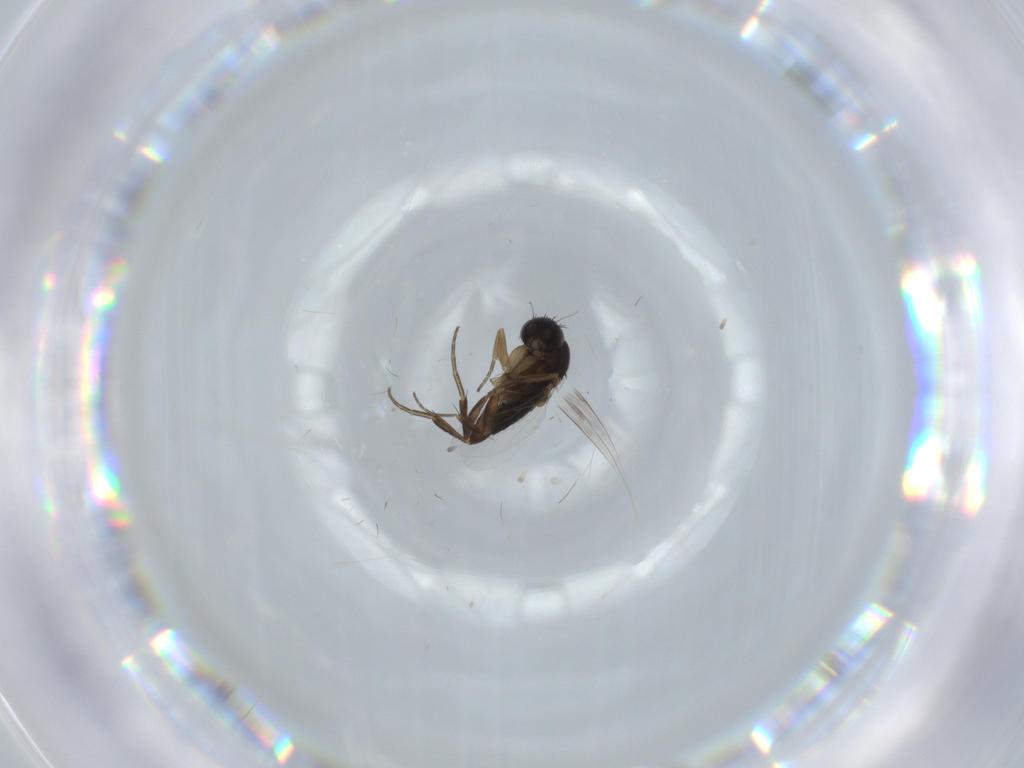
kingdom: Animalia
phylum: Arthropoda
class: Insecta
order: Diptera
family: Phoridae
